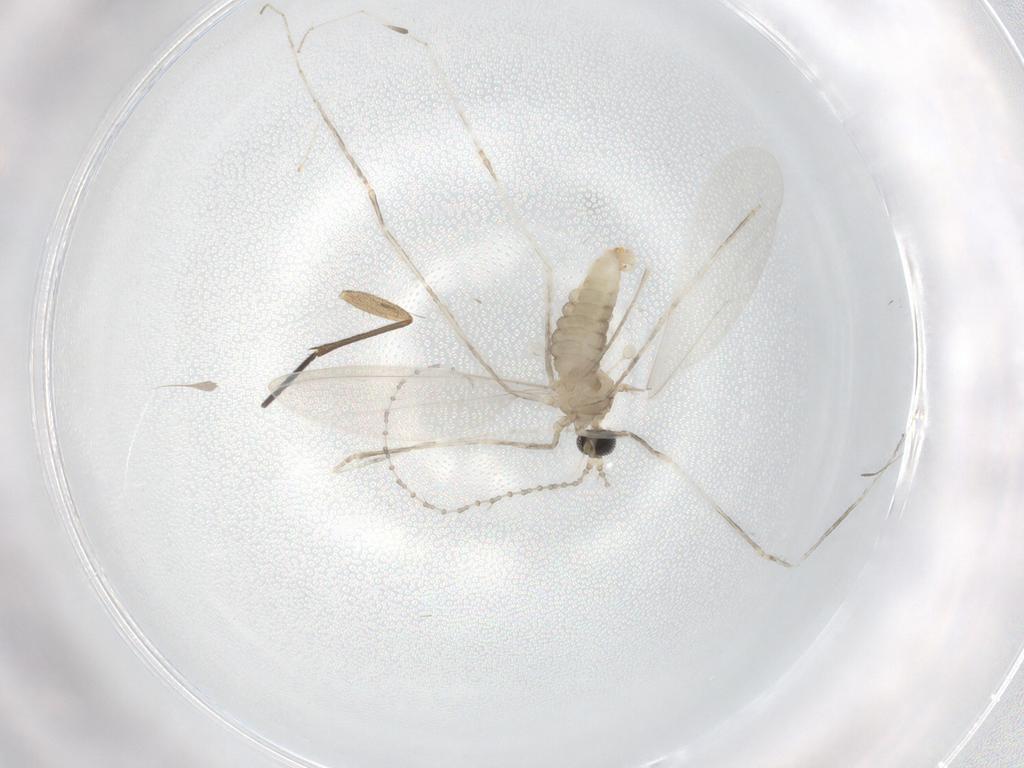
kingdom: Animalia
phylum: Arthropoda
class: Insecta
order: Diptera
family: Cecidomyiidae
